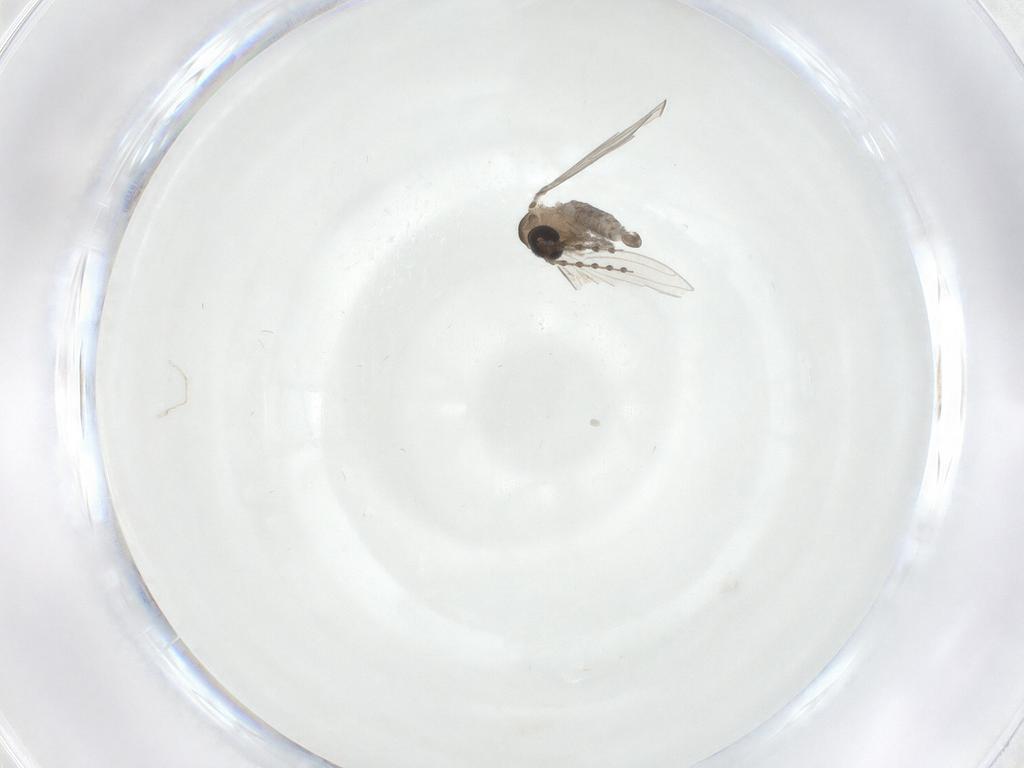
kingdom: Animalia
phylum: Arthropoda
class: Insecta
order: Diptera
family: Psychodidae
